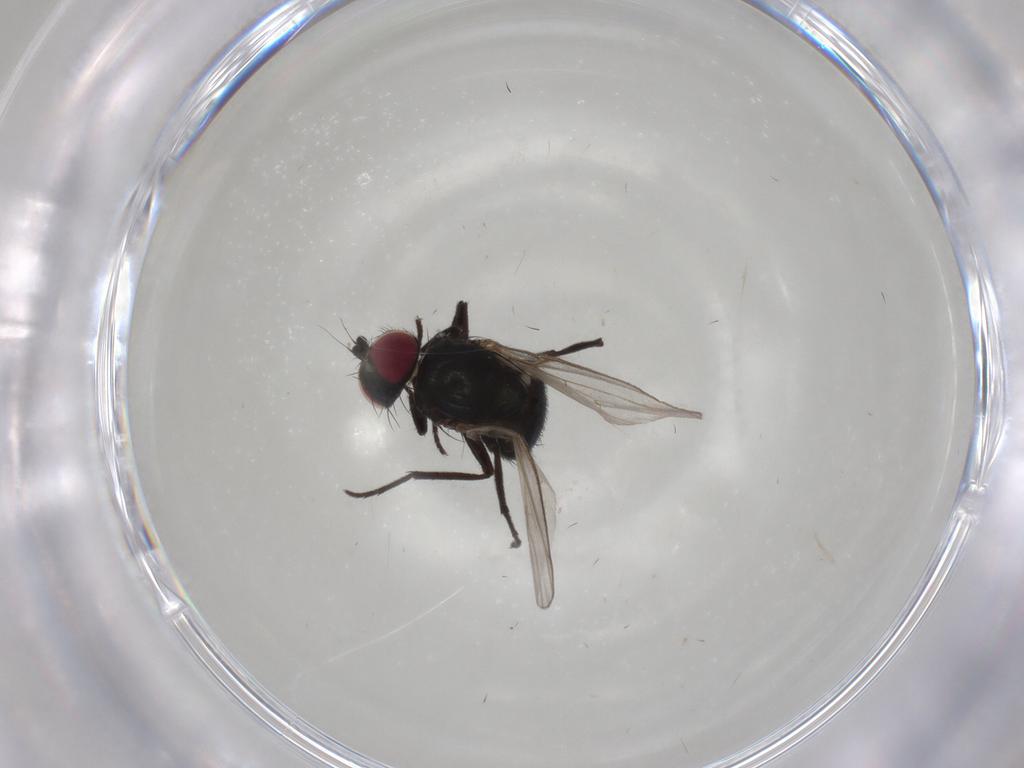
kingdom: Animalia
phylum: Arthropoda
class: Insecta
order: Diptera
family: Agromyzidae
